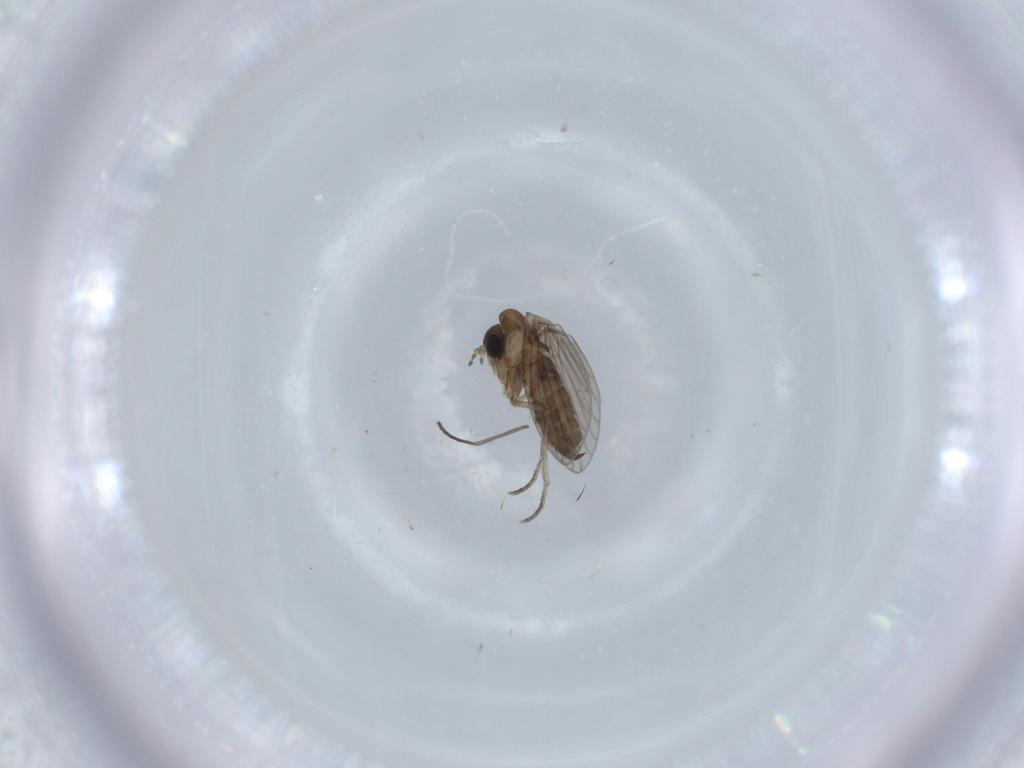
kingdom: Animalia
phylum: Arthropoda
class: Insecta
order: Diptera
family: Psychodidae
